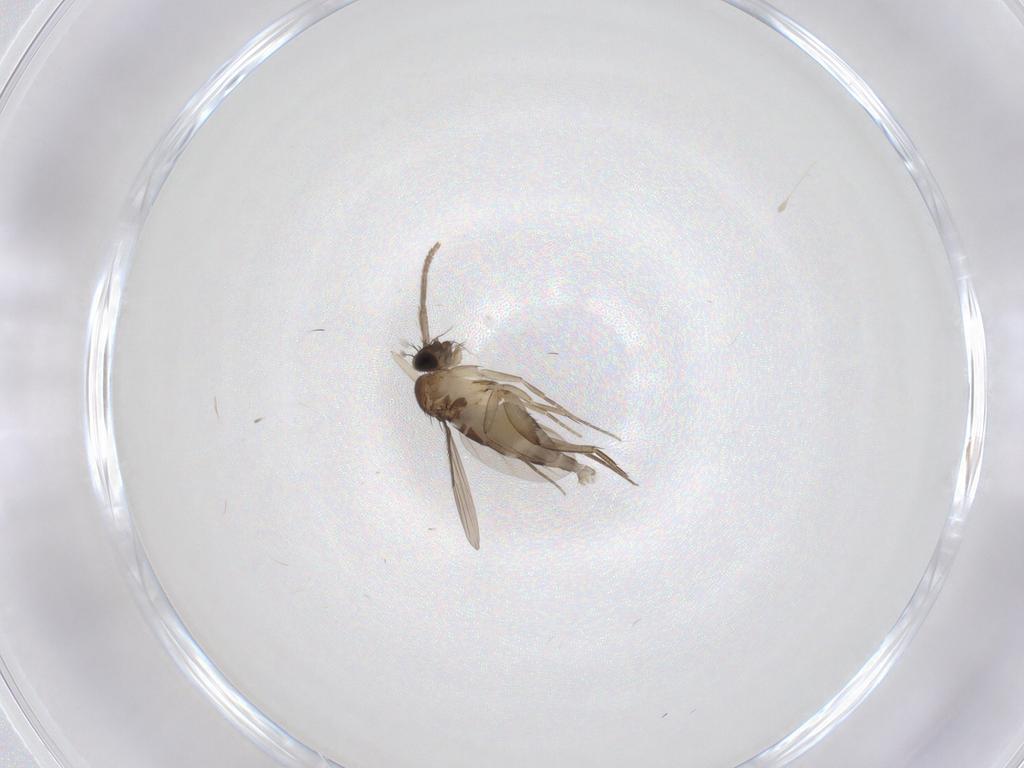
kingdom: Animalia
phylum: Arthropoda
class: Insecta
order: Diptera
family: Phoridae
